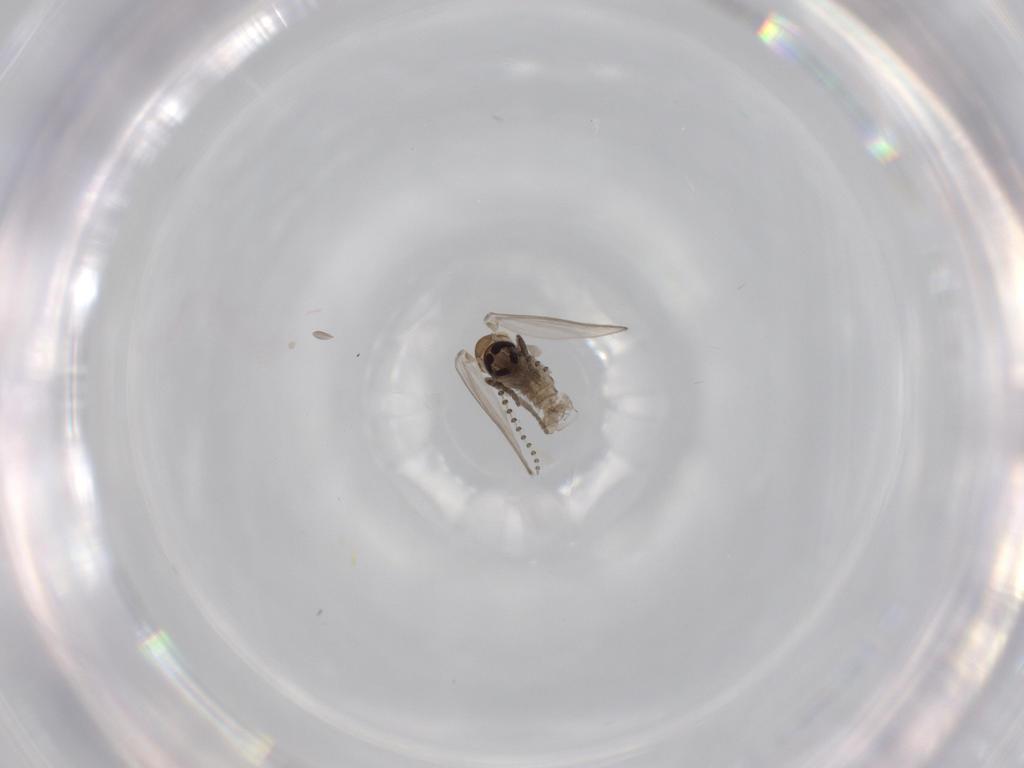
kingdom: Animalia
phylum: Arthropoda
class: Insecta
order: Diptera
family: Psychodidae
